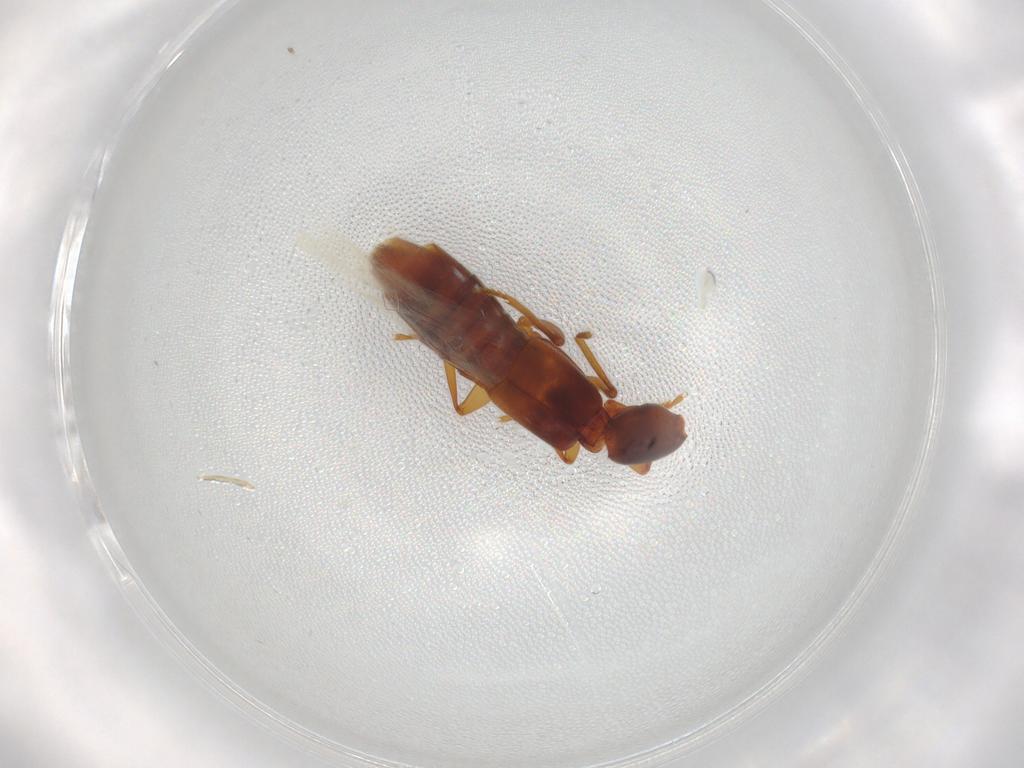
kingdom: Animalia
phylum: Arthropoda
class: Insecta
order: Coleoptera
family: Staphylinidae
